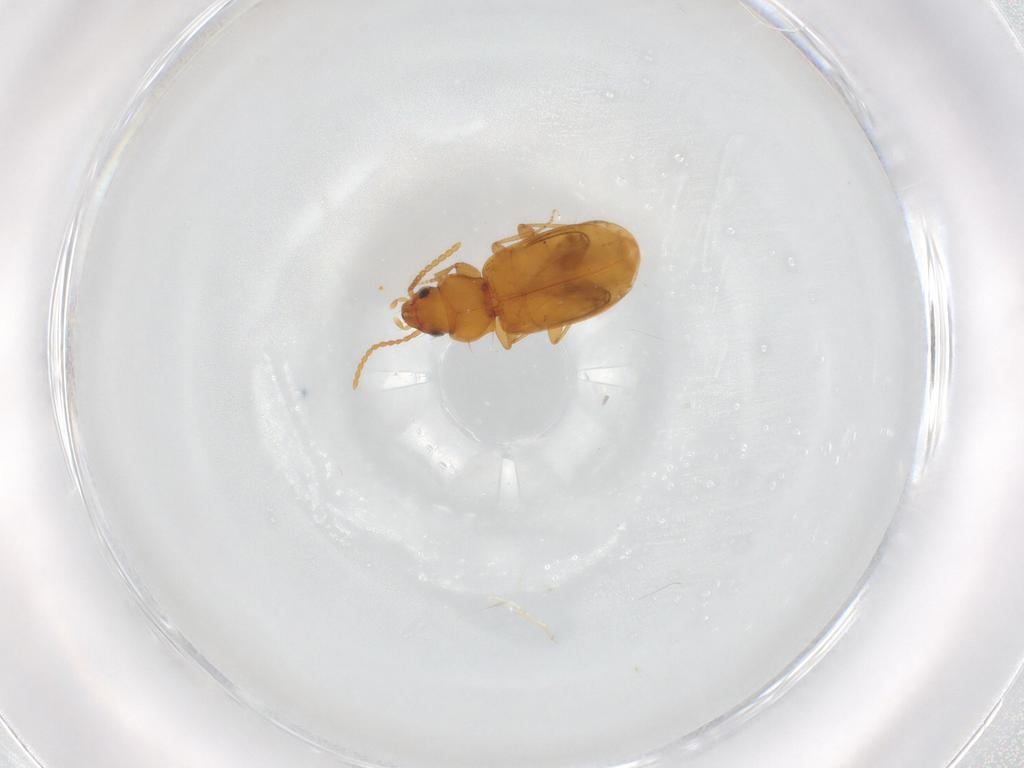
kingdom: Animalia
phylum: Arthropoda
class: Insecta
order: Coleoptera
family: Carabidae
